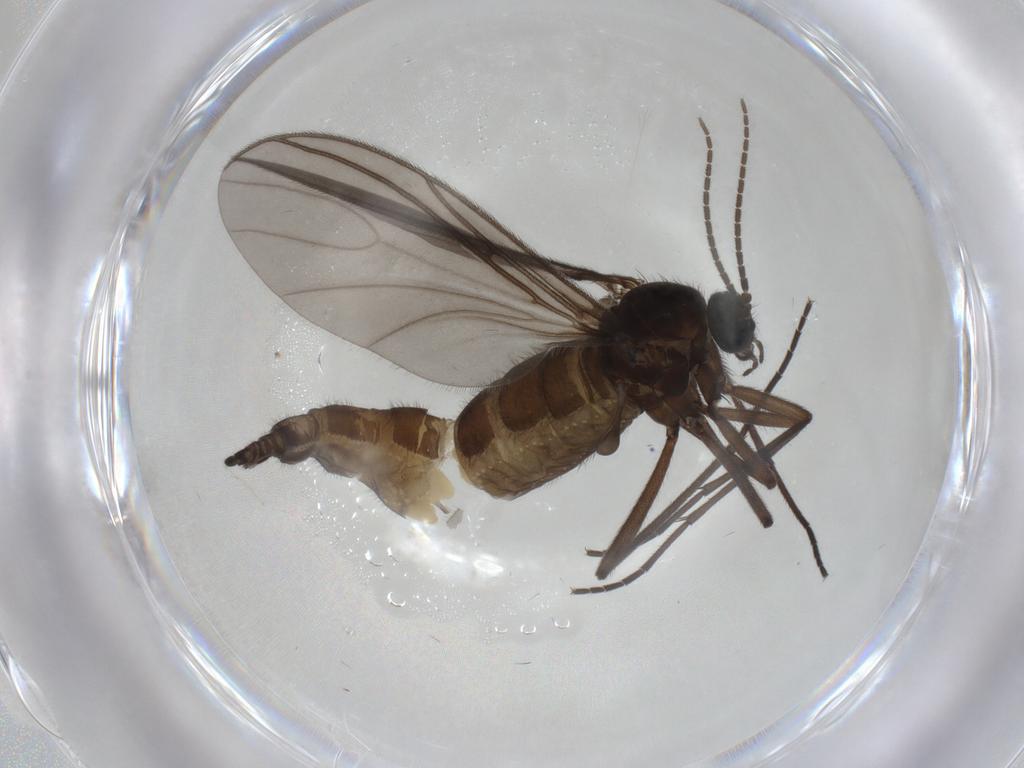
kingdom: Animalia
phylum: Arthropoda
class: Insecta
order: Diptera
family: Sciaridae
